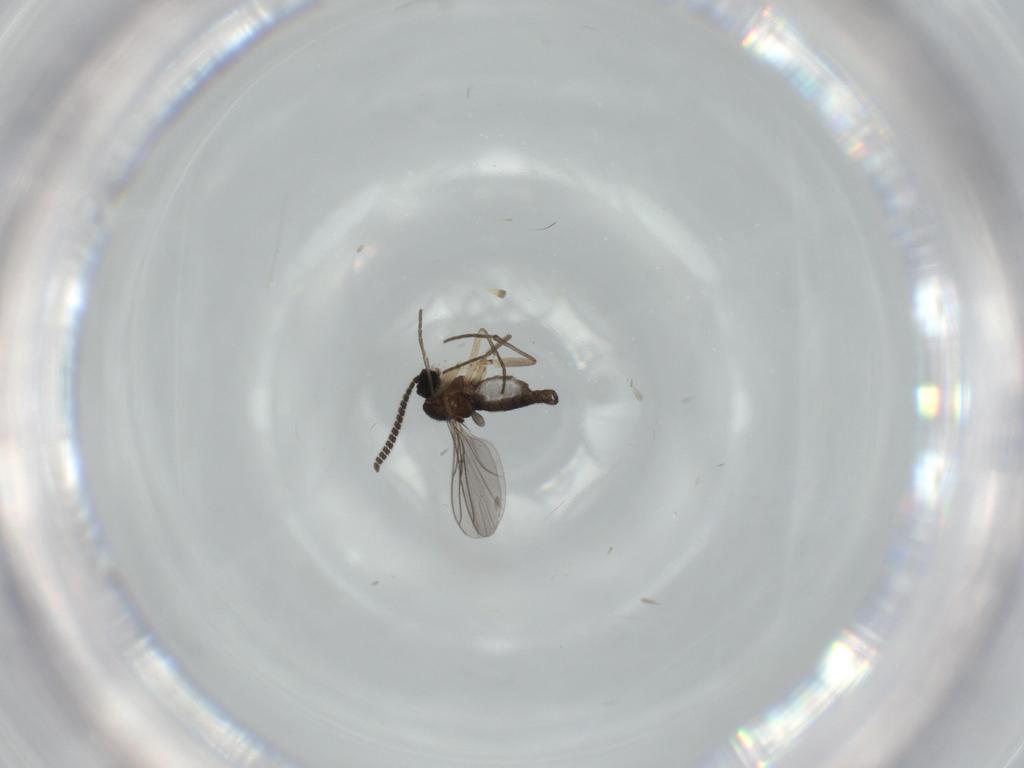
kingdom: Animalia
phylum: Arthropoda
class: Insecta
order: Diptera
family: Sciaridae
